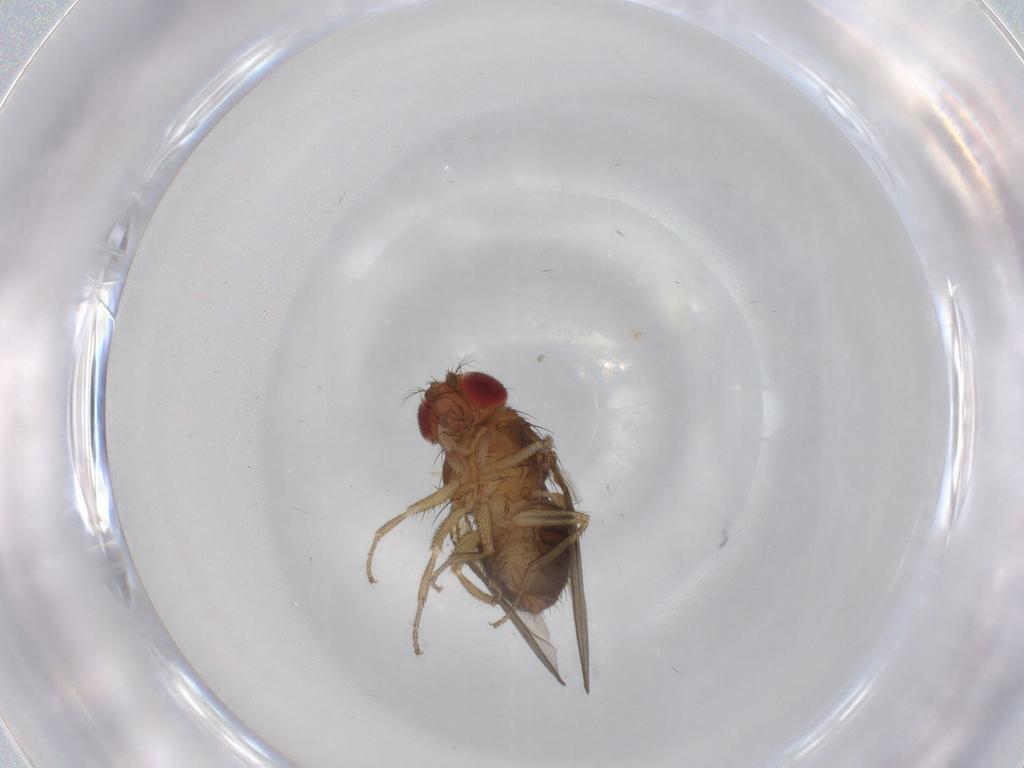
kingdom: Animalia
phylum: Arthropoda
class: Insecta
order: Diptera
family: Drosophilidae
